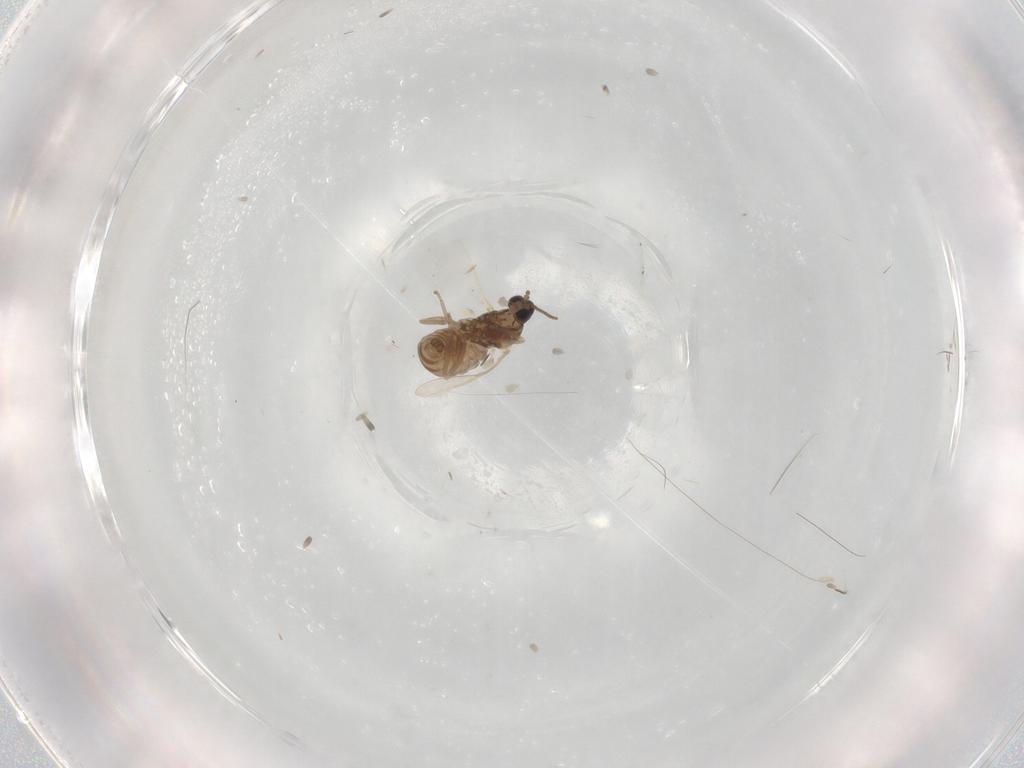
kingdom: Animalia
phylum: Arthropoda
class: Insecta
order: Diptera
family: Cecidomyiidae
